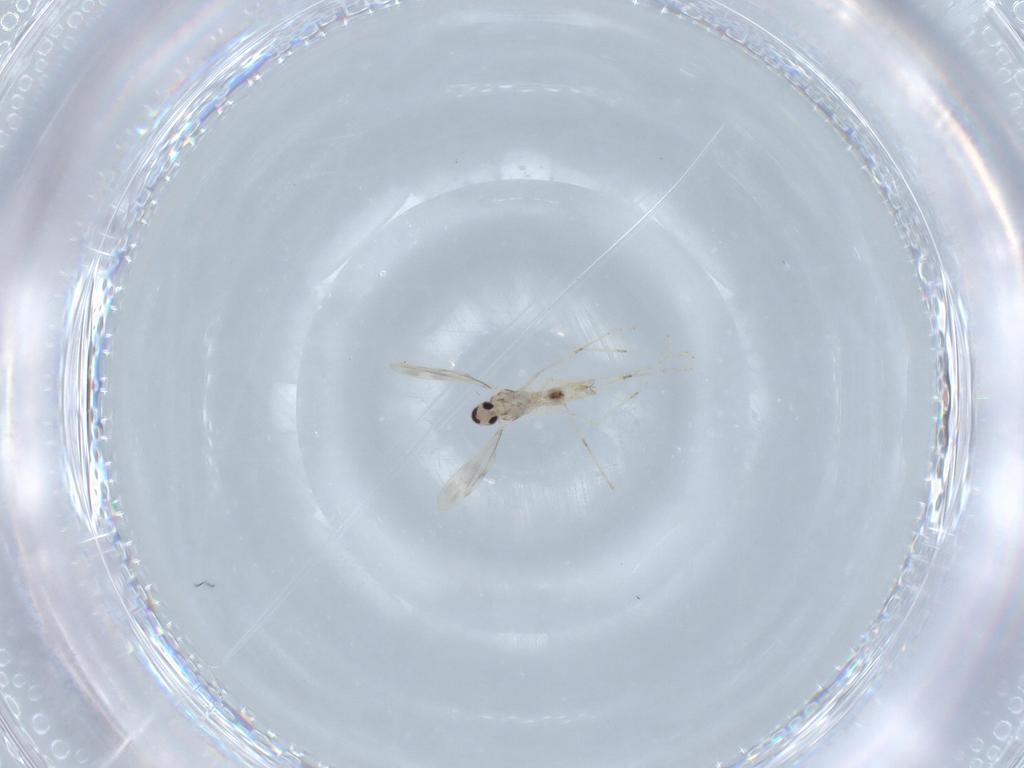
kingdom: Animalia
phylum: Arthropoda
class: Insecta
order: Diptera
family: Cecidomyiidae
